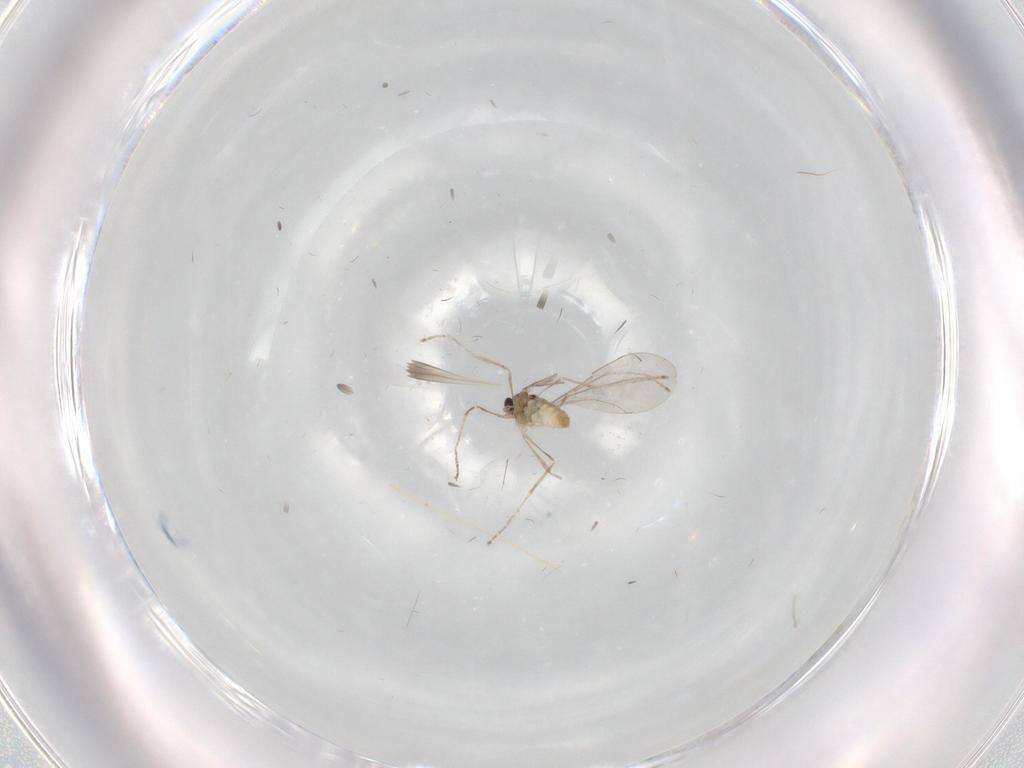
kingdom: Animalia
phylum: Arthropoda
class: Insecta
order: Diptera
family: Cecidomyiidae
